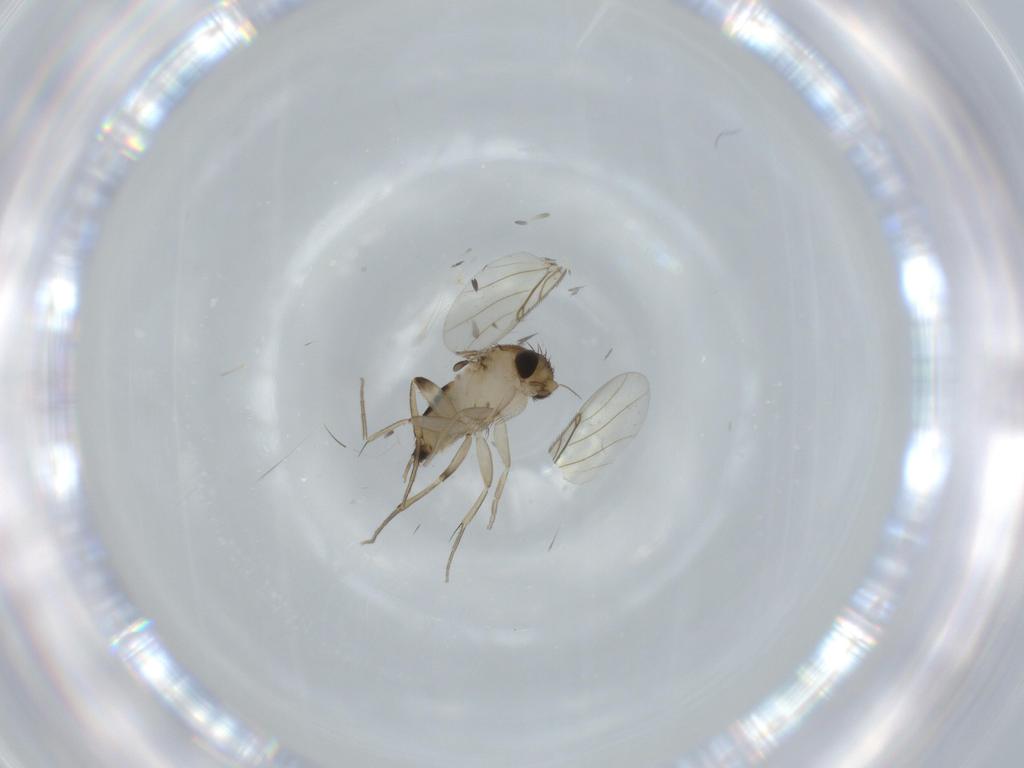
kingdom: Animalia
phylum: Arthropoda
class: Insecta
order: Diptera
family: Phoridae
